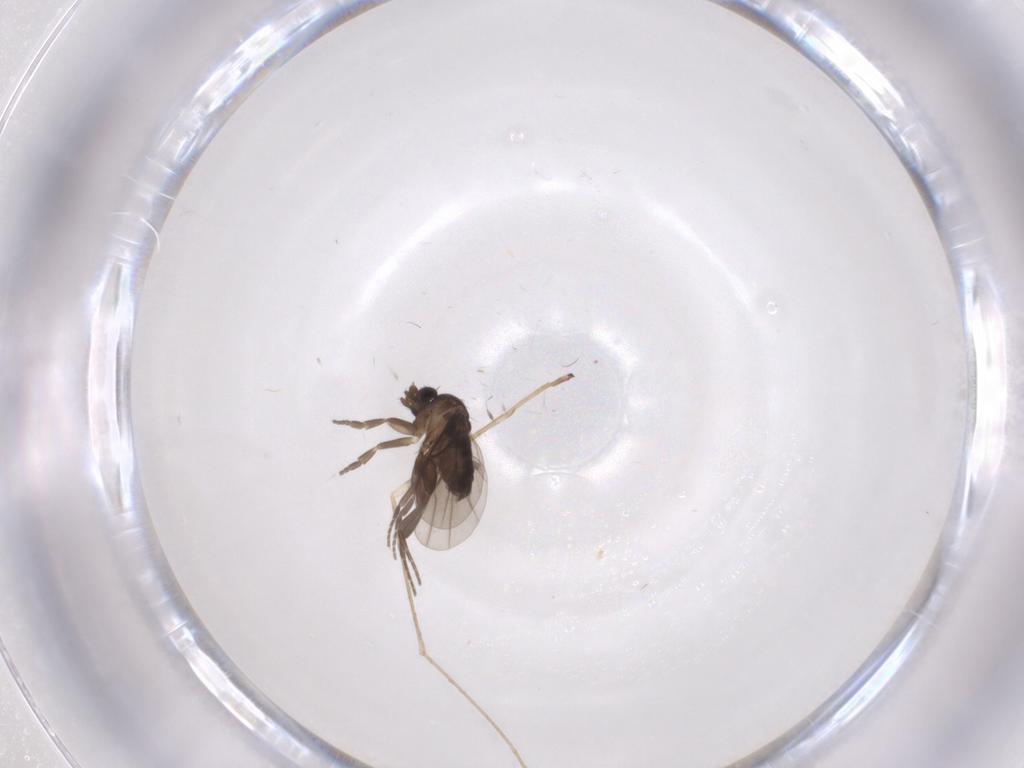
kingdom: Animalia
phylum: Arthropoda
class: Insecta
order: Diptera
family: Phoridae
